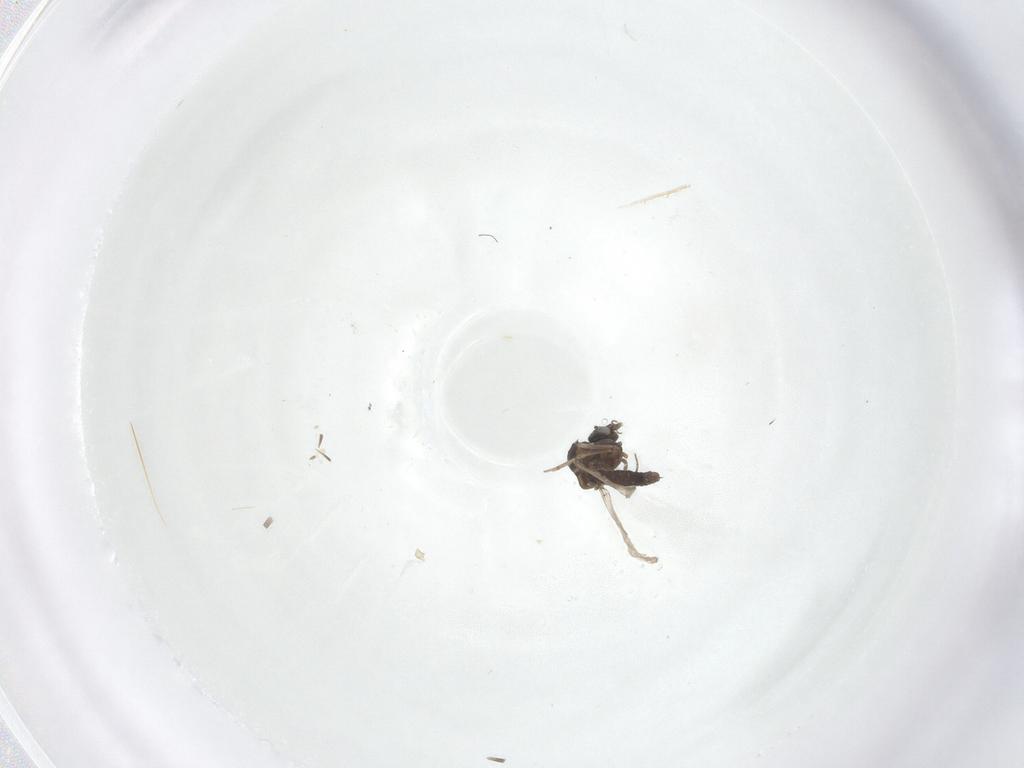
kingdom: Animalia
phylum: Arthropoda
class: Insecta
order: Diptera
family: Ceratopogonidae
